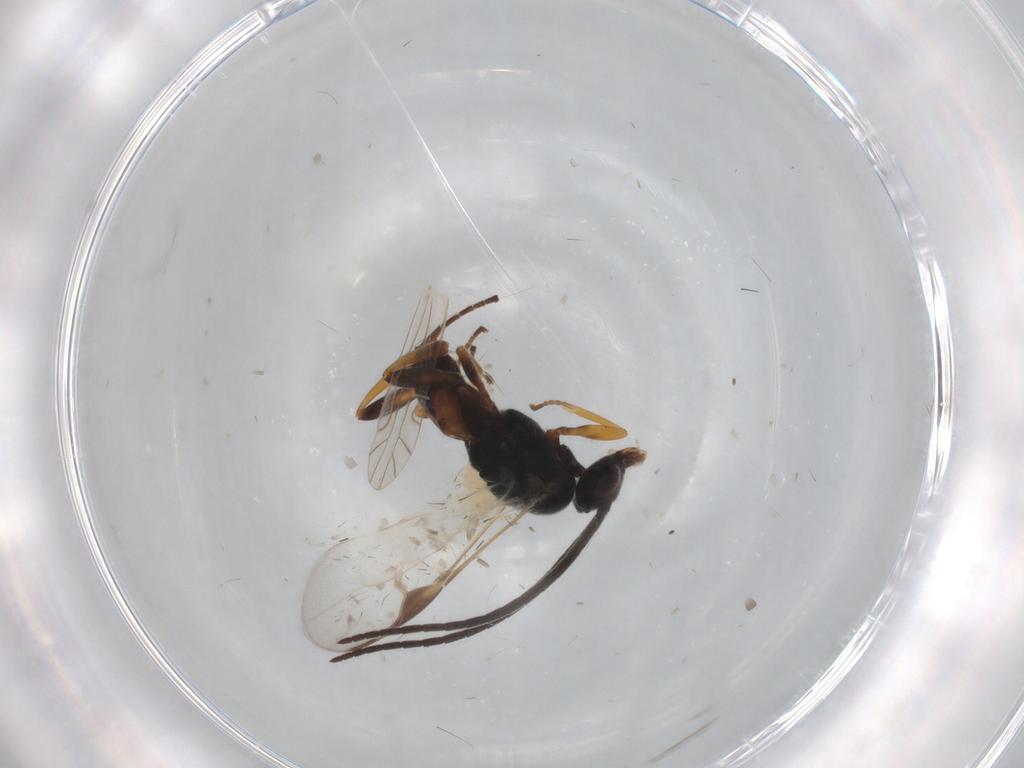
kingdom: Animalia
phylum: Arthropoda
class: Insecta
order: Hymenoptera
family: Braconidae
